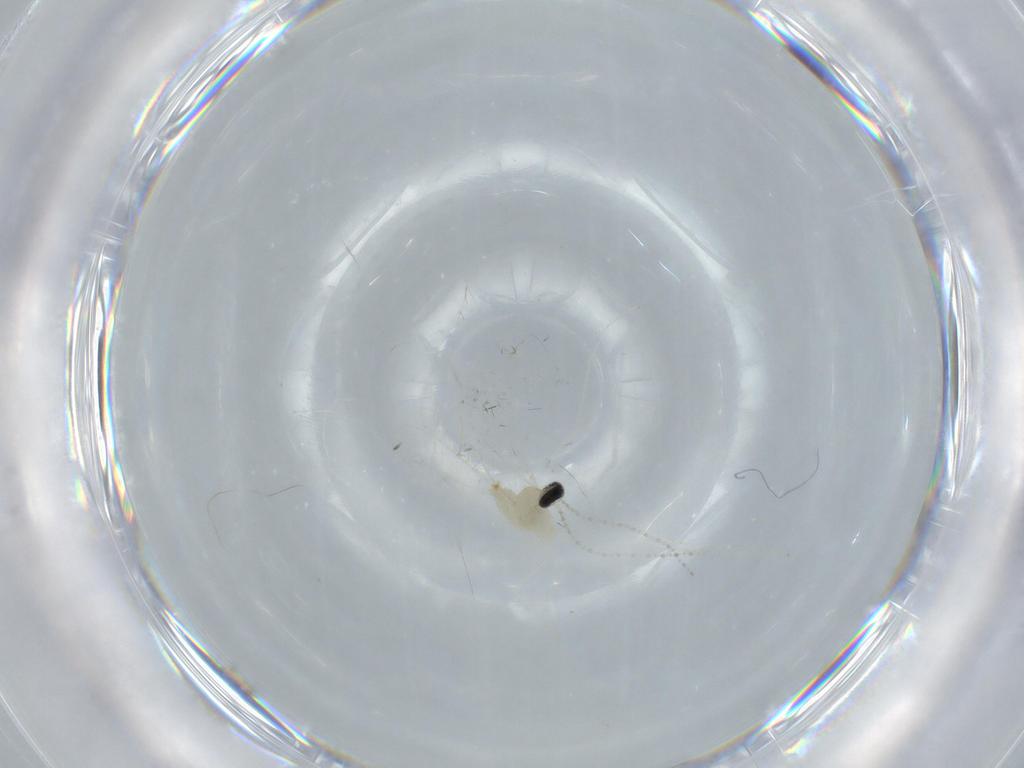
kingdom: Animalia
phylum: Arthropoda
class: Insecta
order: Diptera
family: Cecidomyiidae
